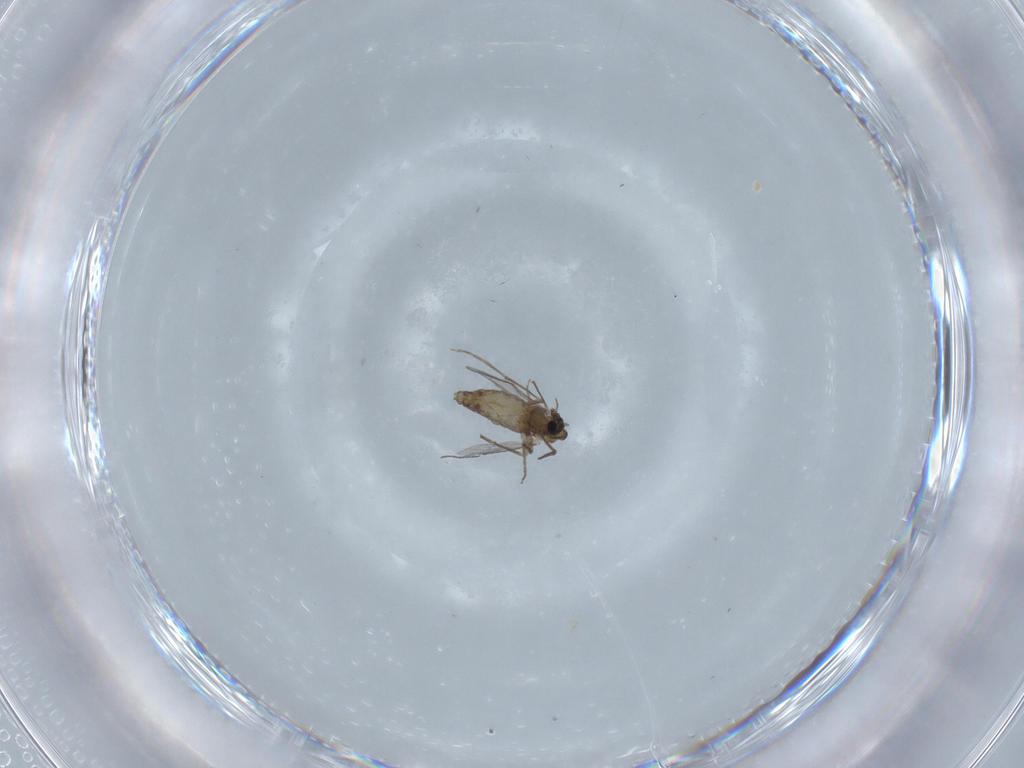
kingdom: Animalia
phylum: Arthropoda
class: Insecta
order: Diptera
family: Chironomidae
